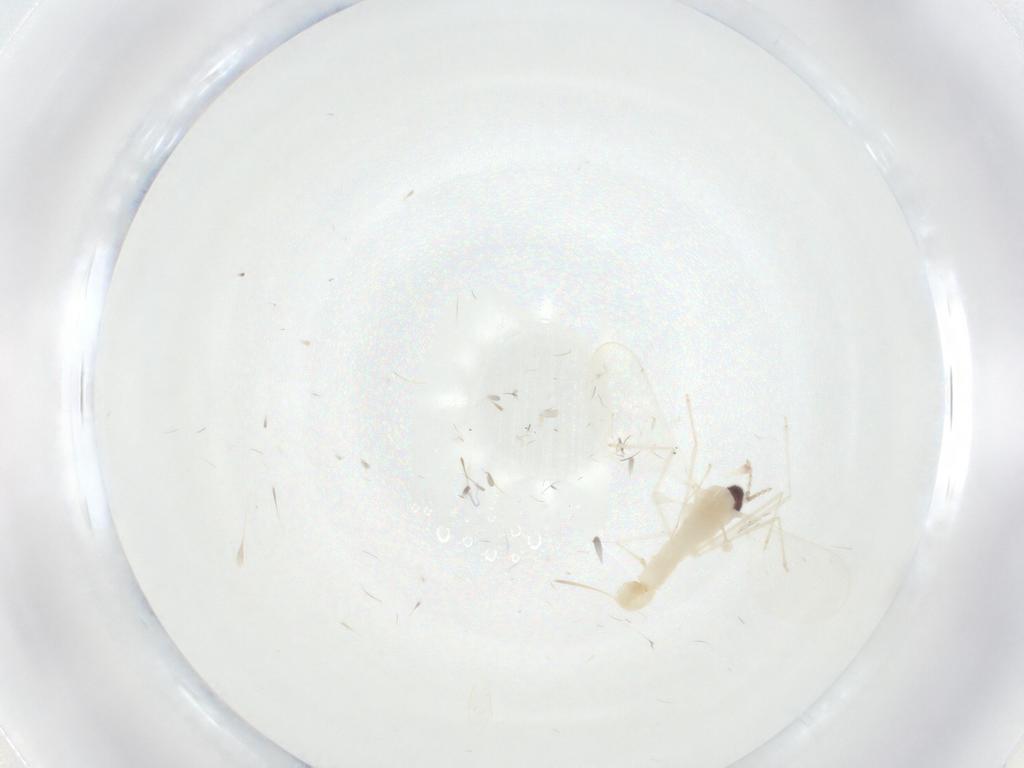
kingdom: Animalia
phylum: Arthropoda
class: Insecta
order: Diptera
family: Cecidomyiidae
